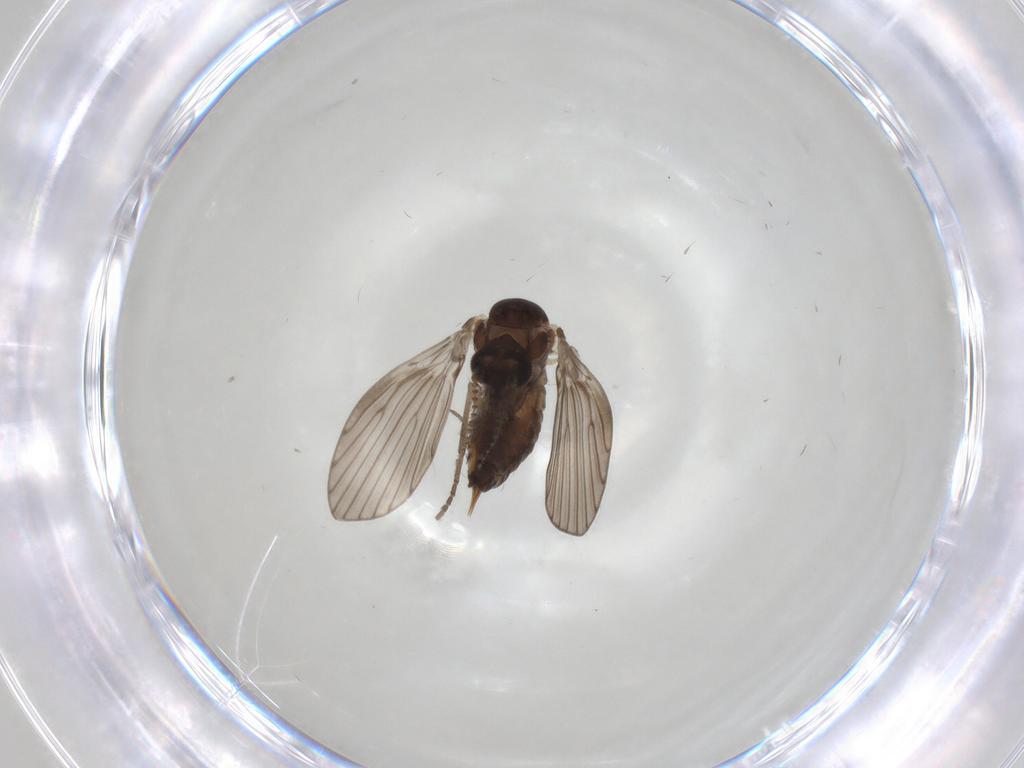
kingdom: Animalia
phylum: Arthropoda
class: Insecta
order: Diptera
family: Psychodidae
